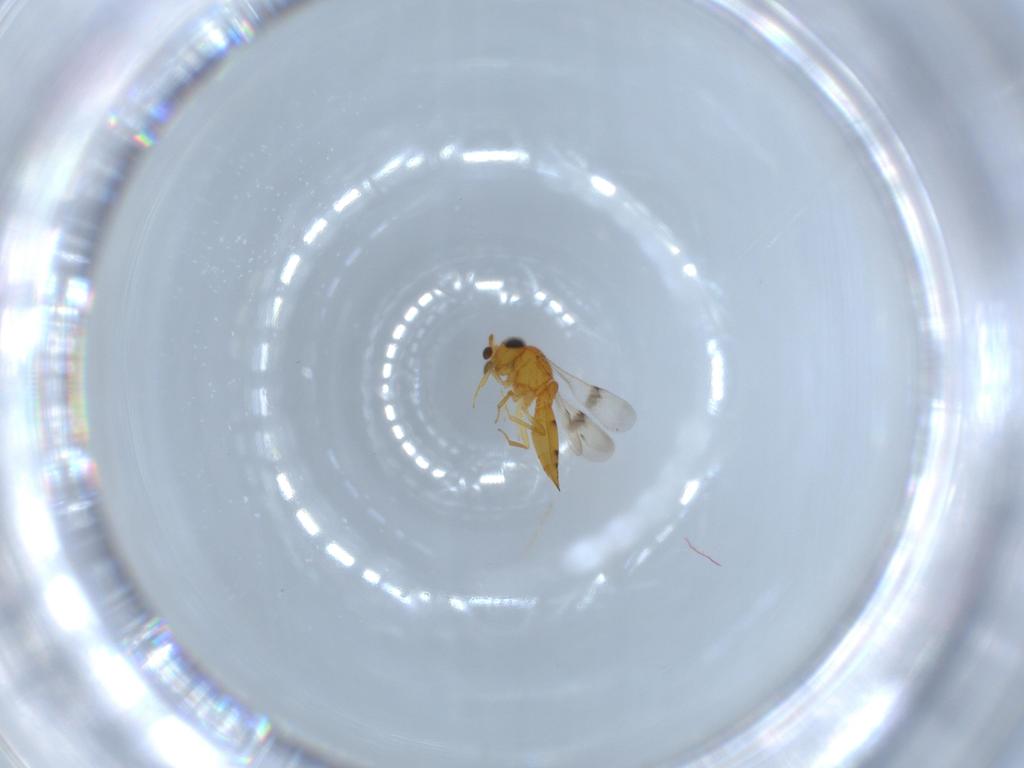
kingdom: Animalia
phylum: Arthropoda
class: Insecta
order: Hymenoptera
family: Scelionidae
